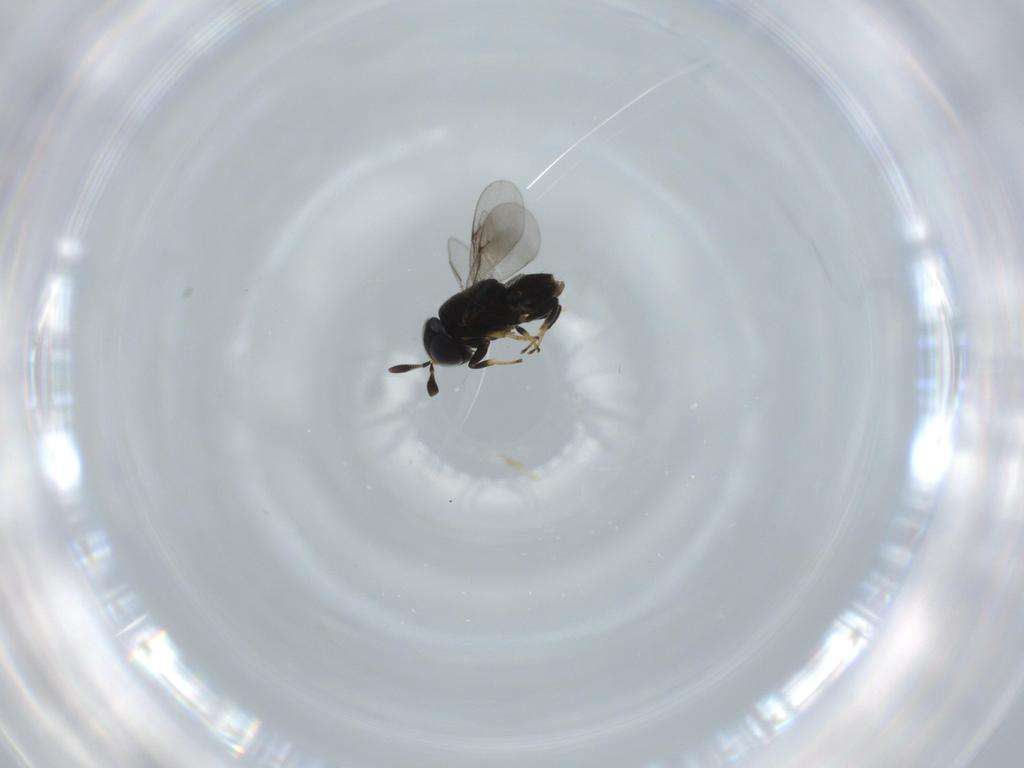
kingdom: Animalia
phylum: Arthropoda
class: Insecta
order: Hymenoptera
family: Encyrtidae
